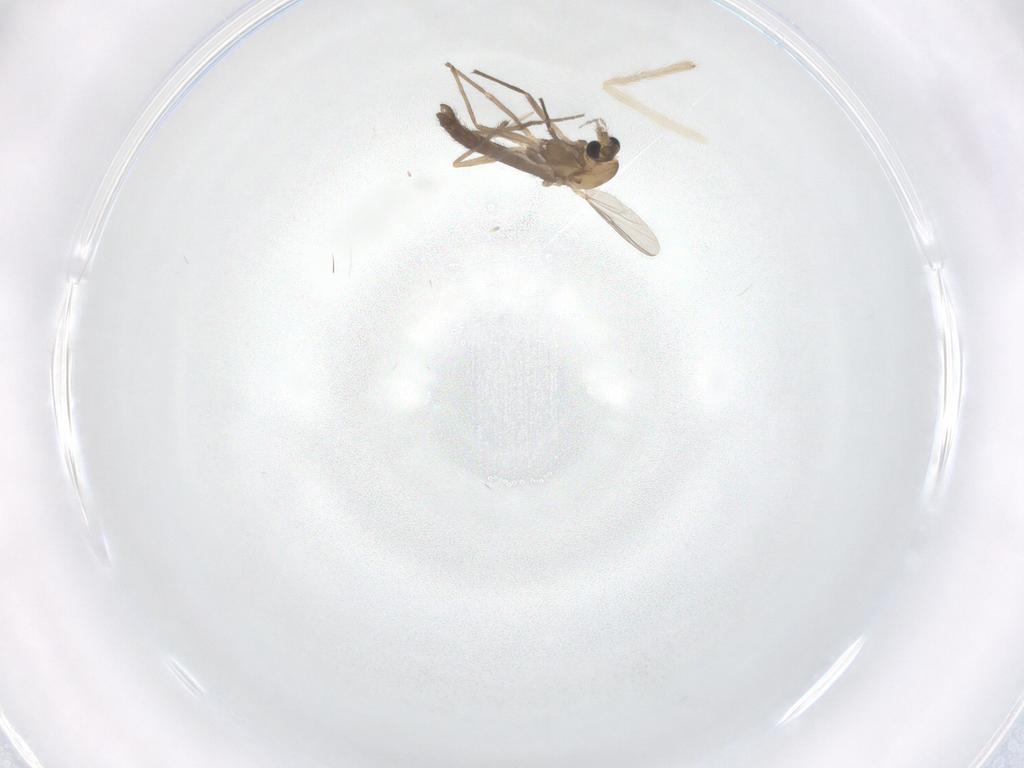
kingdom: Animalia
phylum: Arthropoda
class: Insecta
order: Diptera
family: Chironomidae
